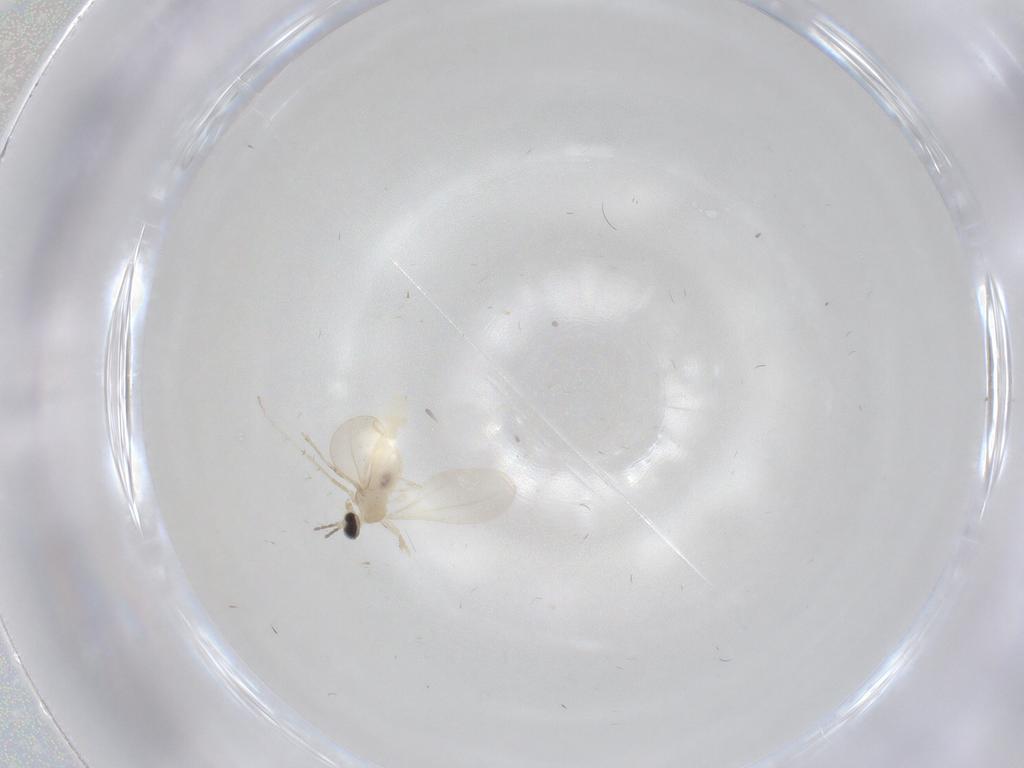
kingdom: Animalia
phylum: Arthropoda
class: Insecta
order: Diptera
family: Cecidomyiidae
